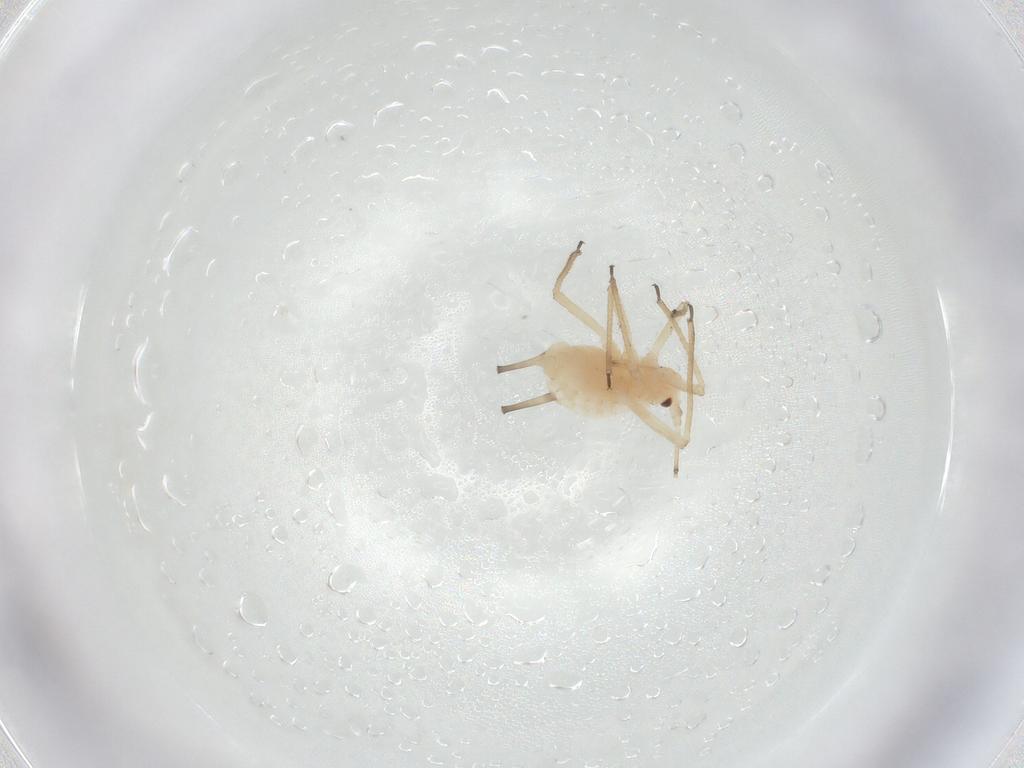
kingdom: Animalia
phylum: Arthropoda
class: Insecta
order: Hemiptera
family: Aphididae
